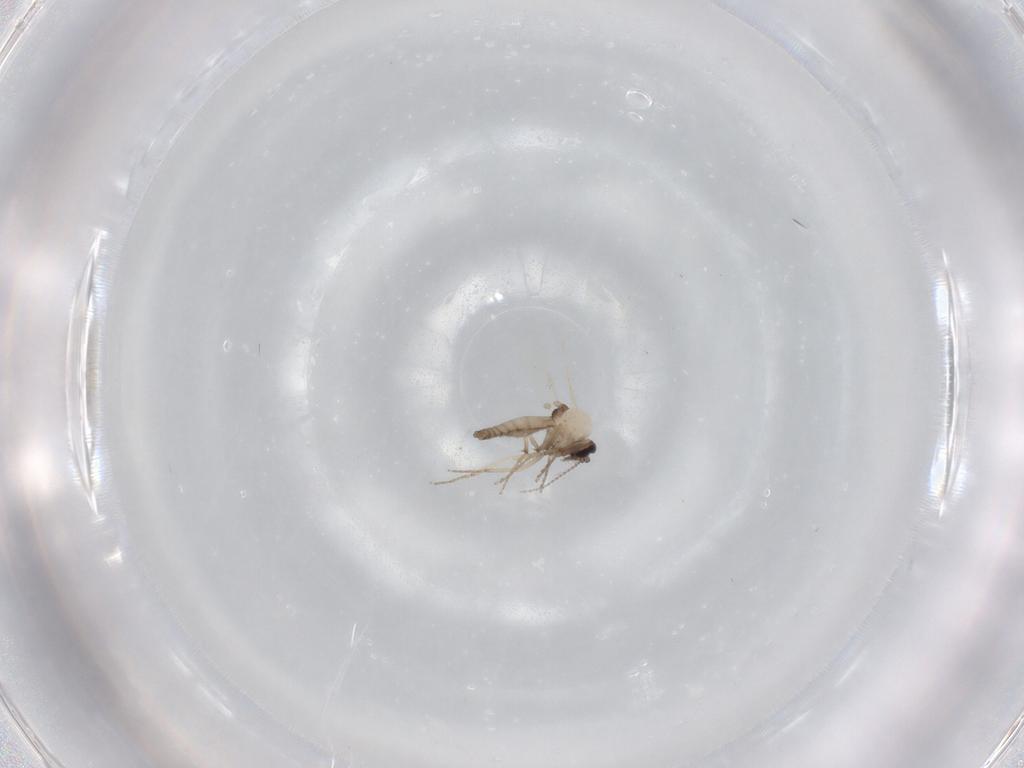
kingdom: Animalia
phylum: Arthropoda
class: Insecta
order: Diptera
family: Ceratopogonidae
